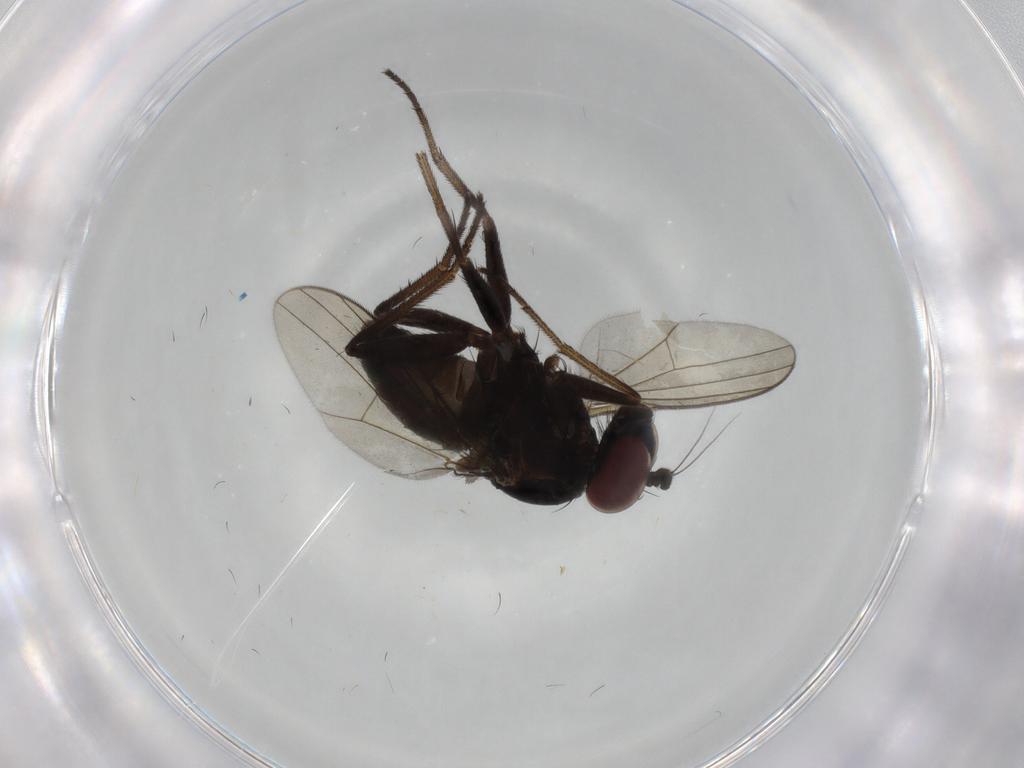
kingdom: Animalia
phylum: Arthropoda
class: Insecta
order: Diptera
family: Dolichopodidae
